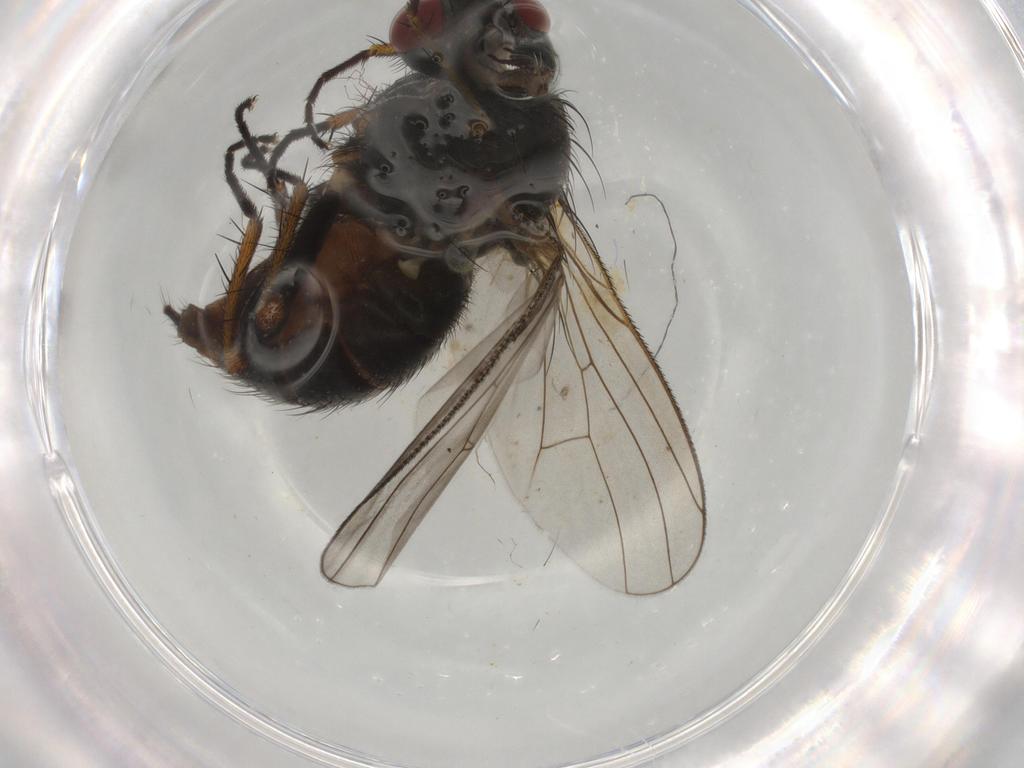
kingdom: Animalia
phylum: Arthropoda
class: Insecta
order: Diptera
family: Muscidae
